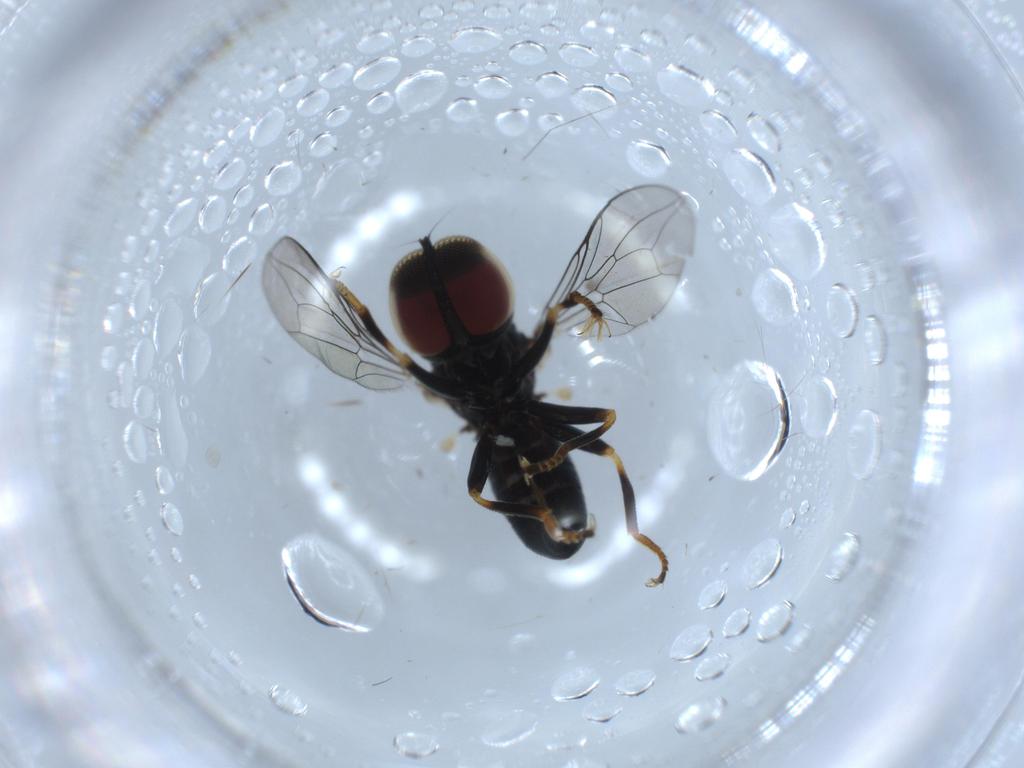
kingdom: Animalia
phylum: Arthropoda
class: Insecta
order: Diptera
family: Pipunculidae
